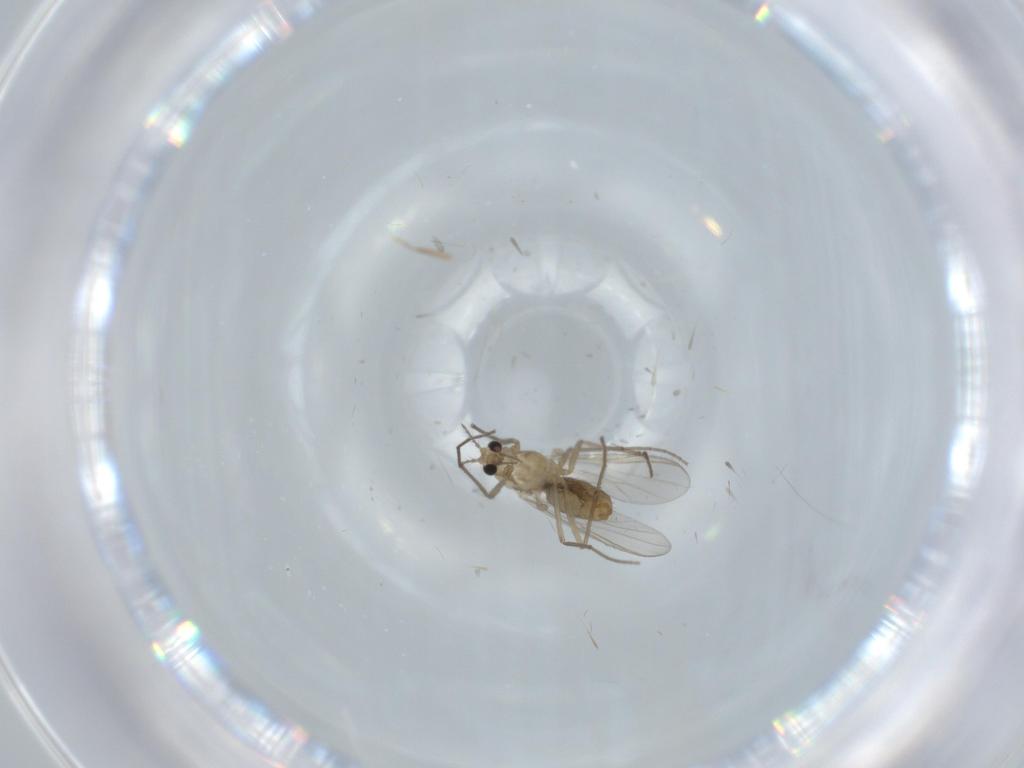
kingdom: Animalia
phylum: Arthropoda
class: Insecta
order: Diptera
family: Chironomidae
